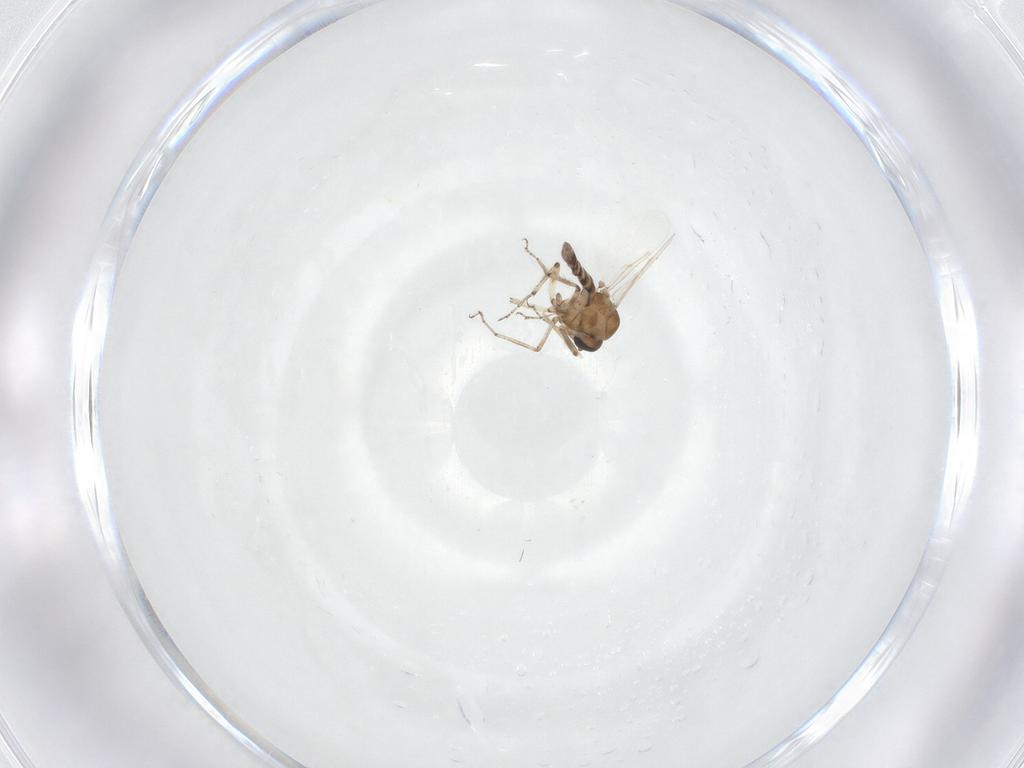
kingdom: Animalia
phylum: Arthropoda
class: Insecta
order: Diptera
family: Ceratopogonidae
